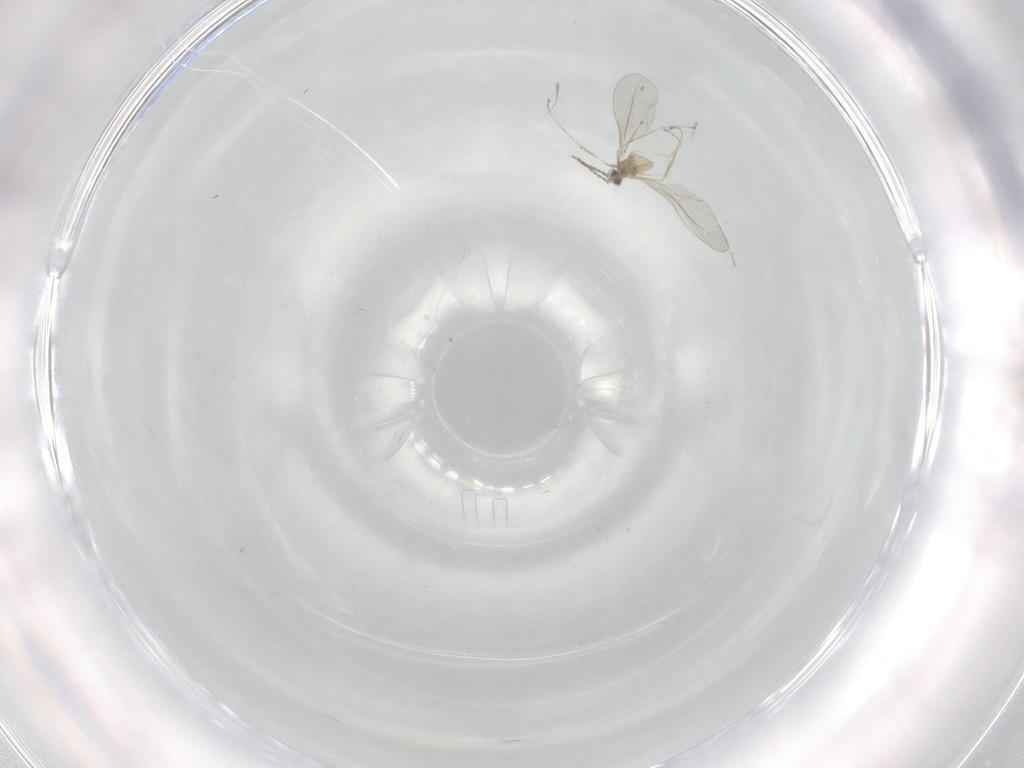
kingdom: Animalia
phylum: Arthropoda
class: Insecta
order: Diptera
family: Cecidomyiidae
